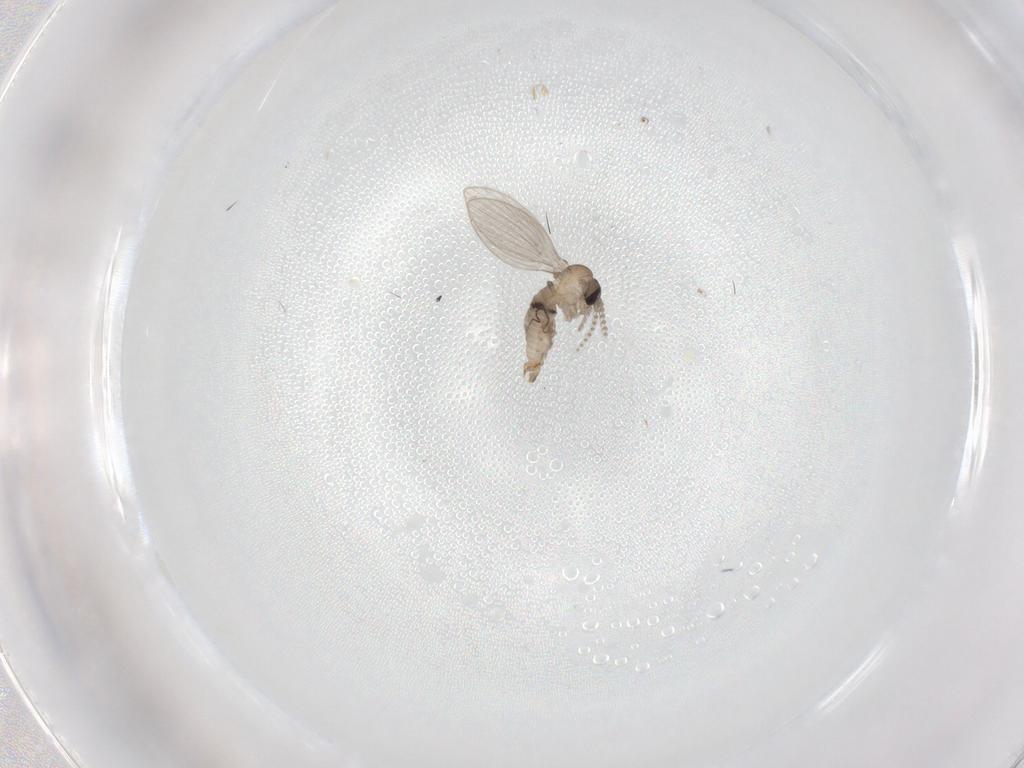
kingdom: Animalia
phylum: Arthropoda
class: Insecta
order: Diptera
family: Psychodidae
